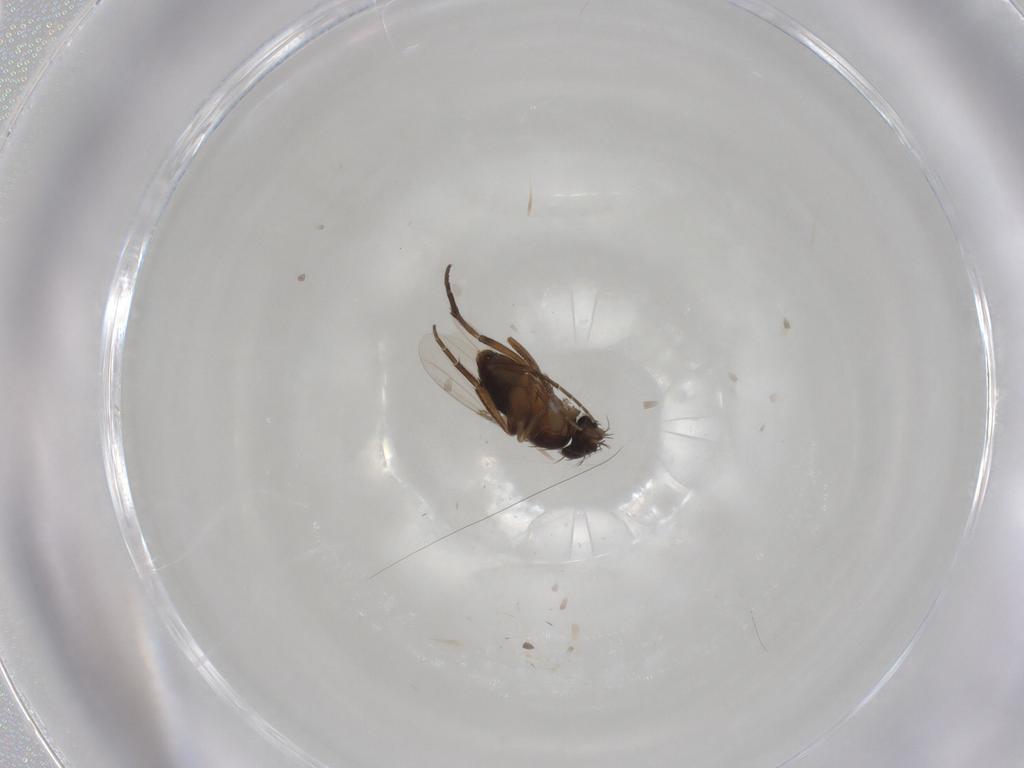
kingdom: Animalia
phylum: Arthropoda
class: Insecta
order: Diptera
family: Phoridae
